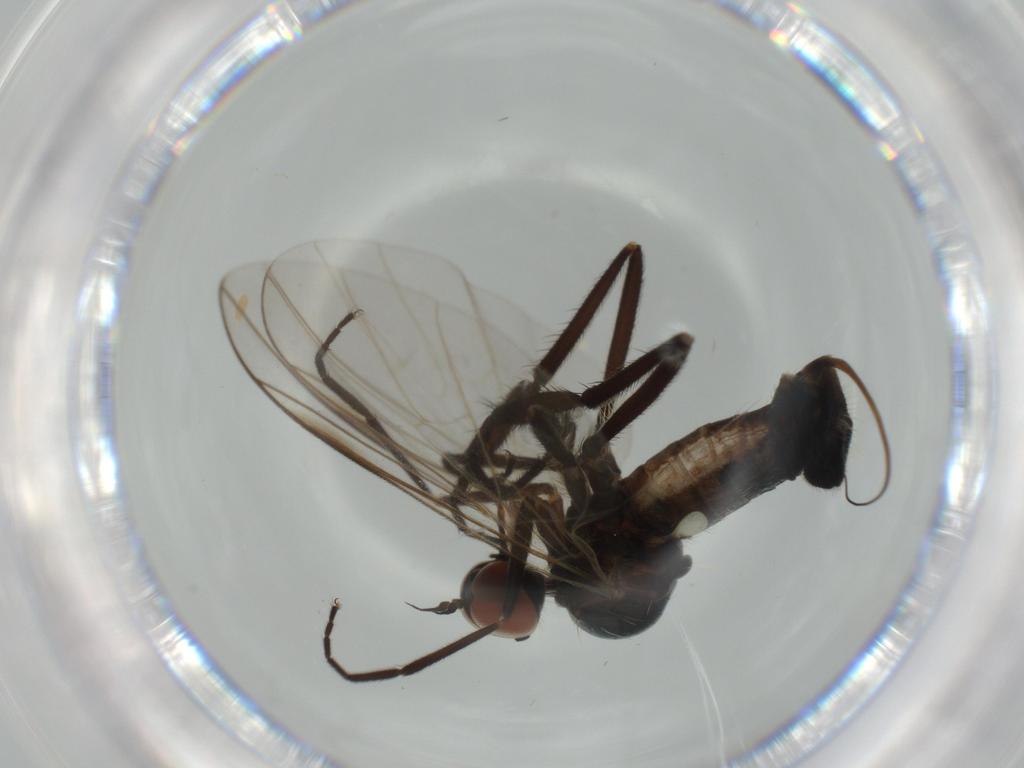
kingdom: Animalia
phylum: Arthropoda
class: Insecta
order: Diptera
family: Empididae
